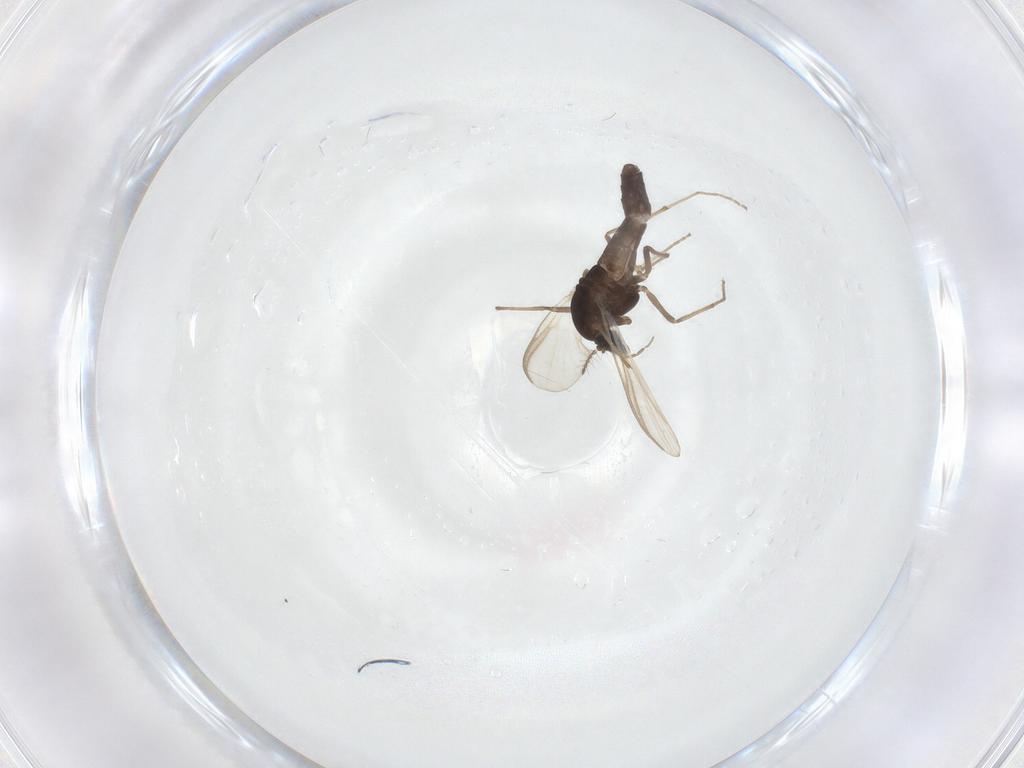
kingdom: Animalia
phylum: Arthropoda
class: Insecta
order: Diptera
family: Chironomidae
